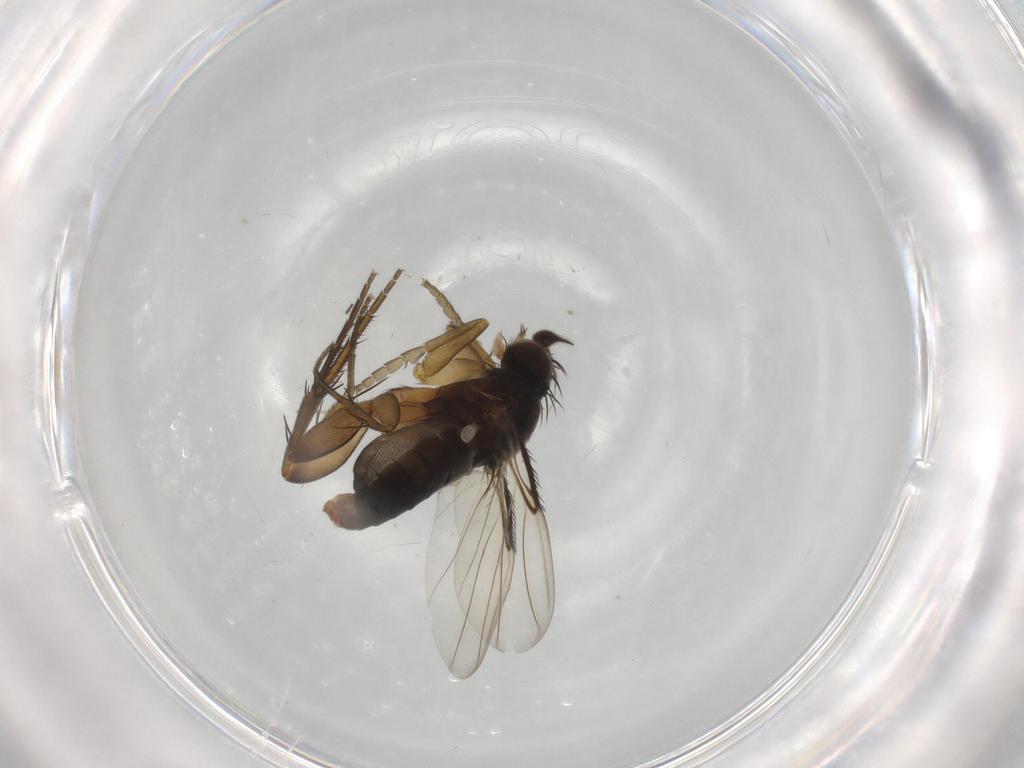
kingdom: Animalia
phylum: Arthropoda
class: Insecta
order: Diptera
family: Phoridae
